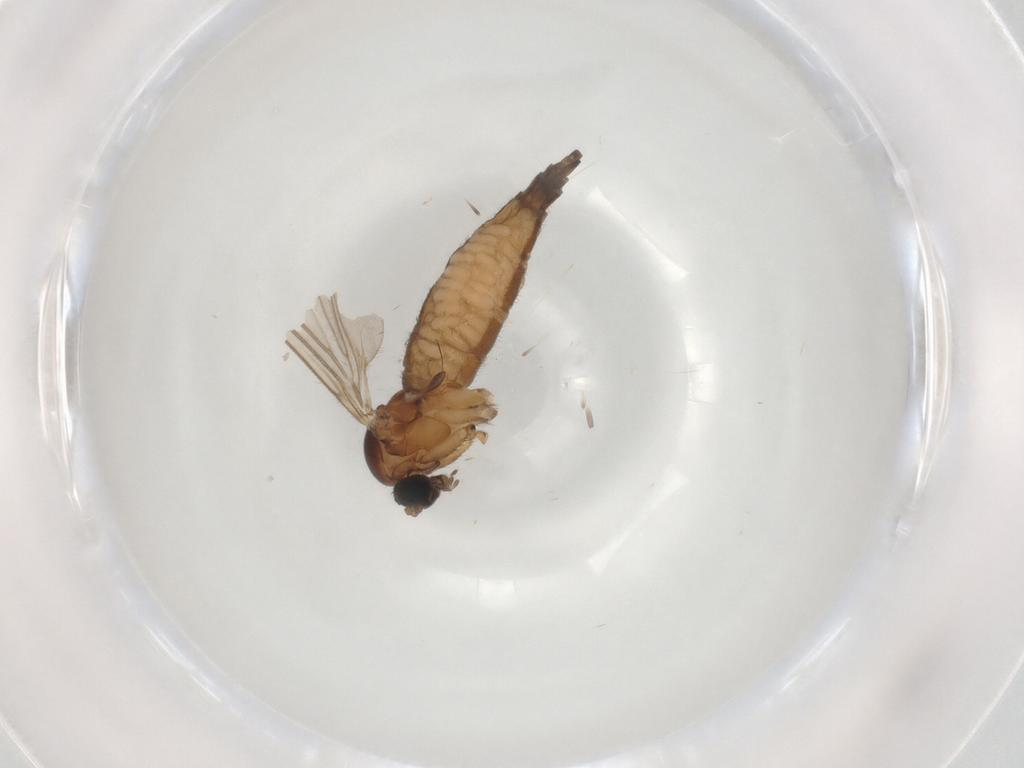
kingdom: Animalia
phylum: Arthropoda
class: Insecta
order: Diptera
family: Sciaridae
